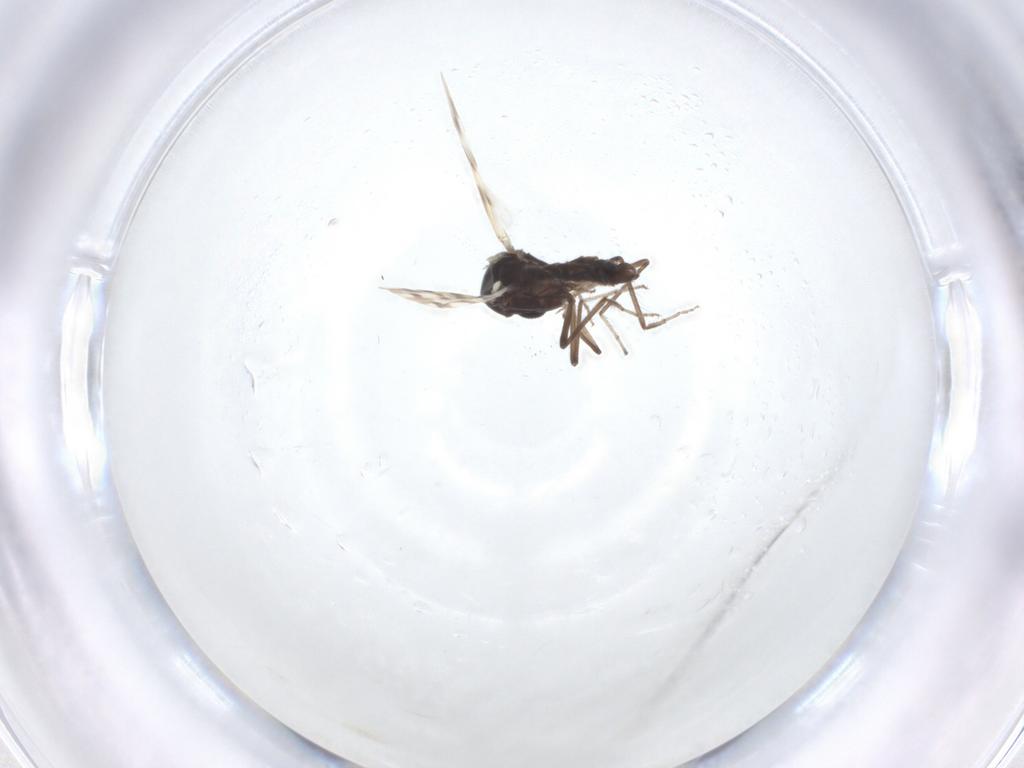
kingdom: Animalia
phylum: Arthropoda
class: Insecta
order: Diptera
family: Ceratopogonidae
